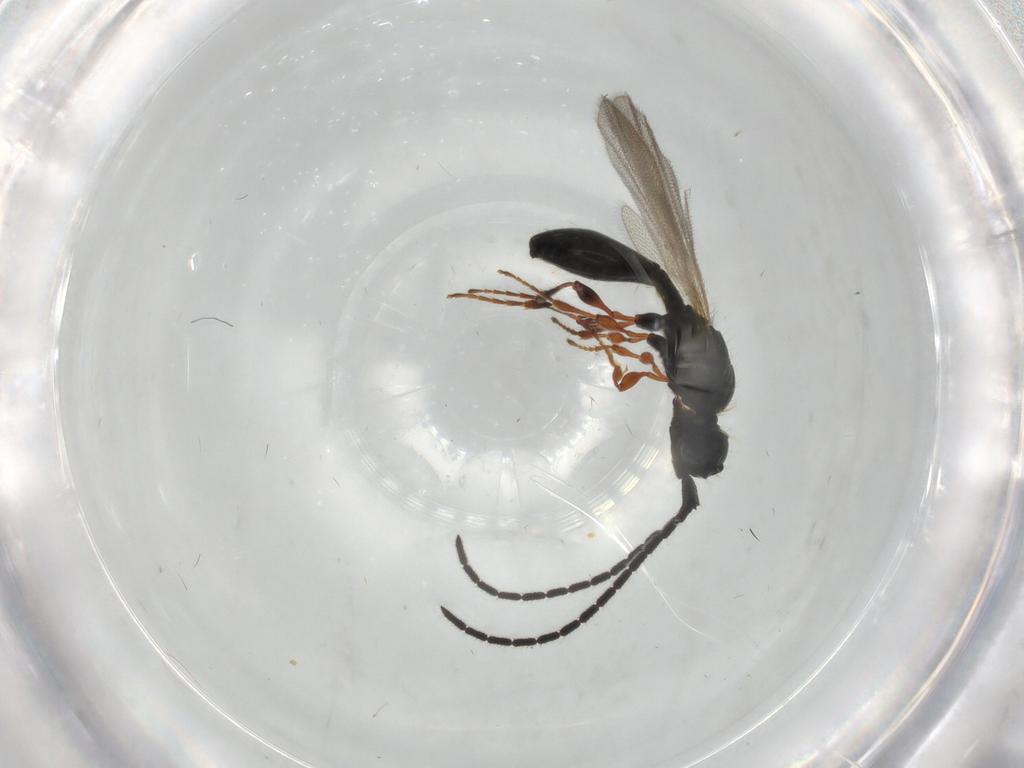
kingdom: Animalia
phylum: Arthropoda
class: Insecta
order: Hymenoptera
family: Diapriidae
